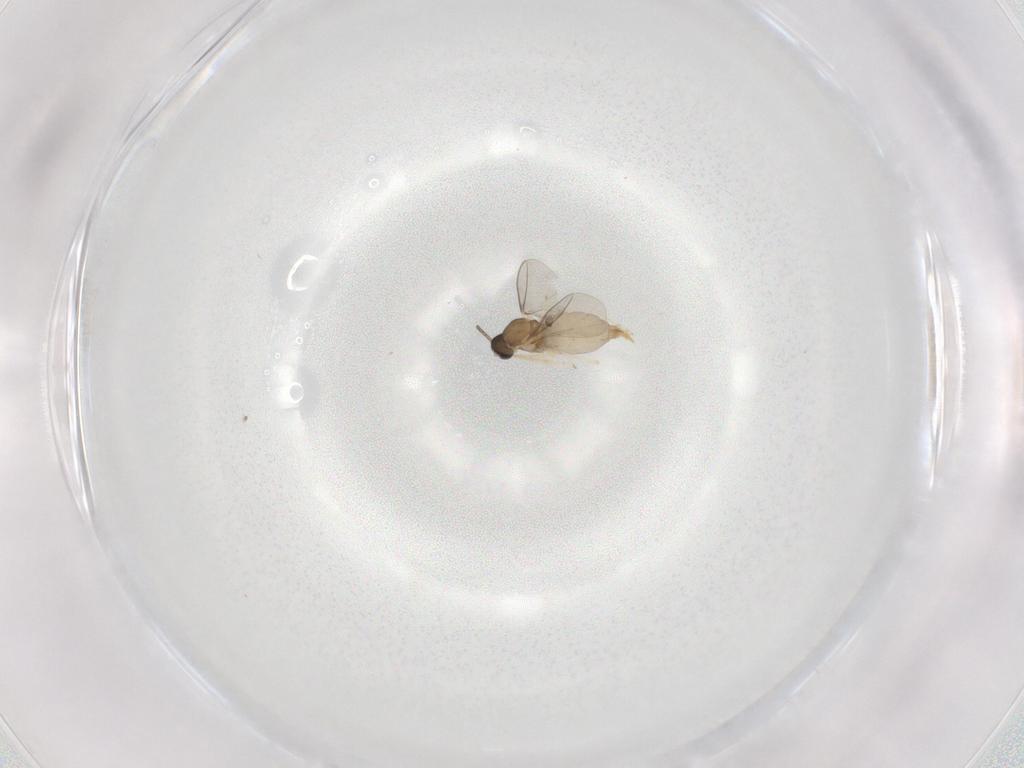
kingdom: Animalia
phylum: Arthropoda
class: Insecta
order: Diptera
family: Cecidomyiidae
